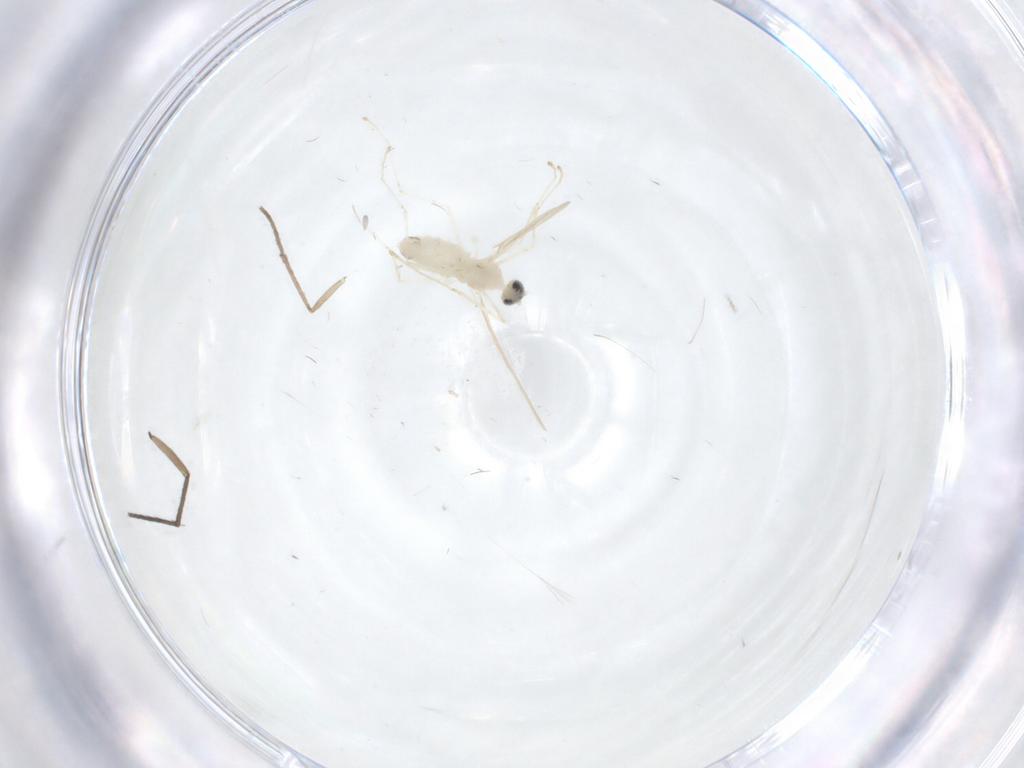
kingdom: Animalia
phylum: Arthropoda
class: Insecta
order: Diptera
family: Psychodidae
